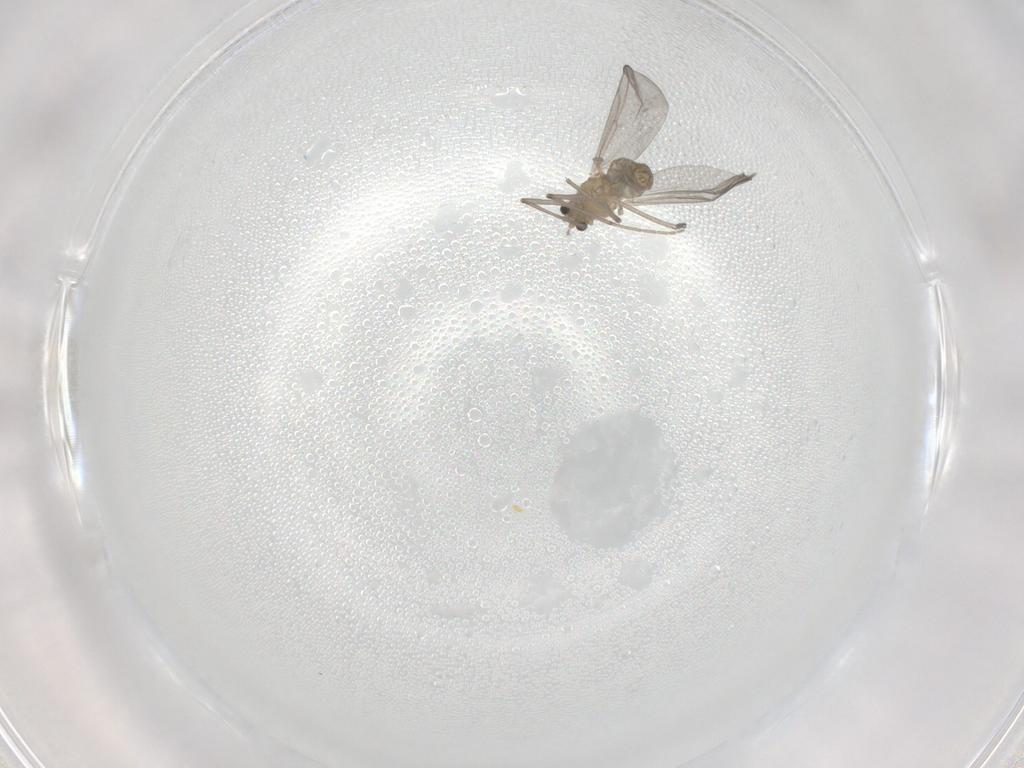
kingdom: Animalia
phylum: Arthropoda
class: Insecta
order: Diptera
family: Chironomidae
